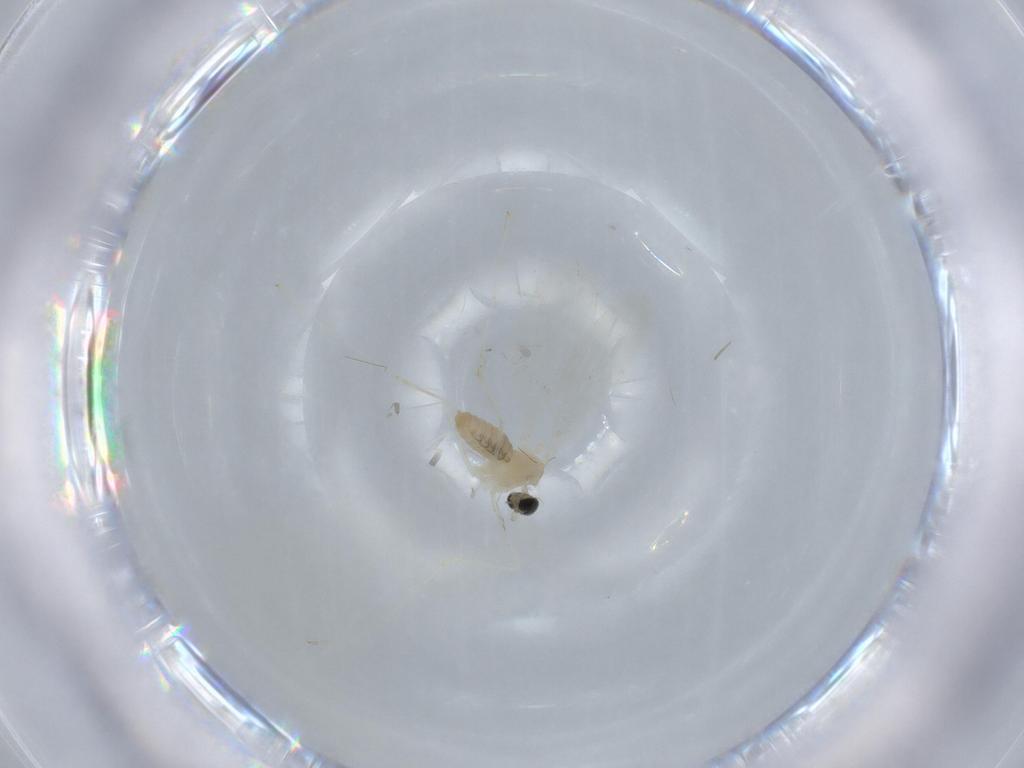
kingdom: Animalia
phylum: Arthropoda
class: Insecta
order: Diptera
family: Cecidomyiidae
